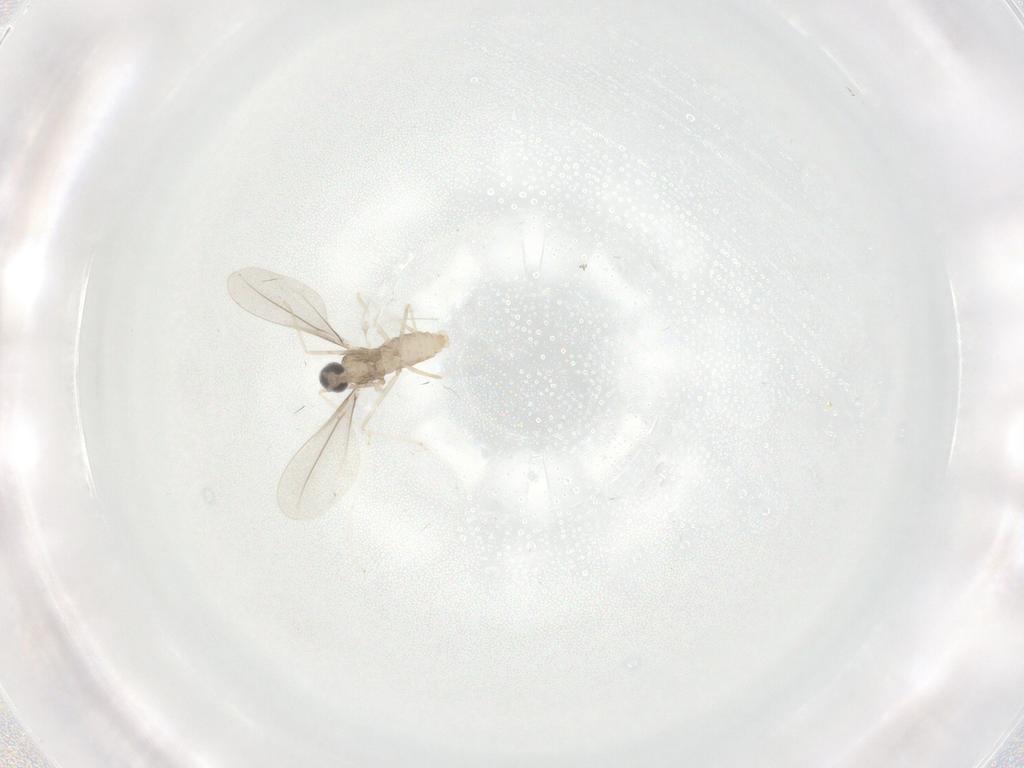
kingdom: Animalia
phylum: Arthropoda
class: Insecta
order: Diptera
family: Cecidomyiidae
